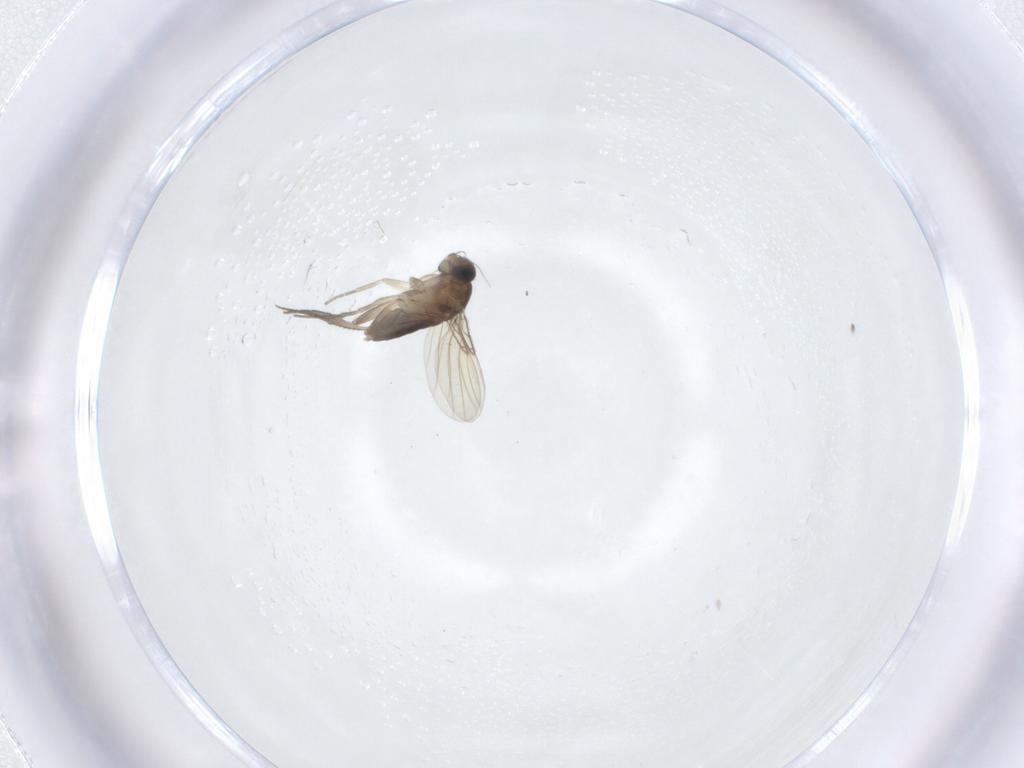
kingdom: Animalia
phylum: Arthropoda
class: Insecta
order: Diptera
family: Phoridae
